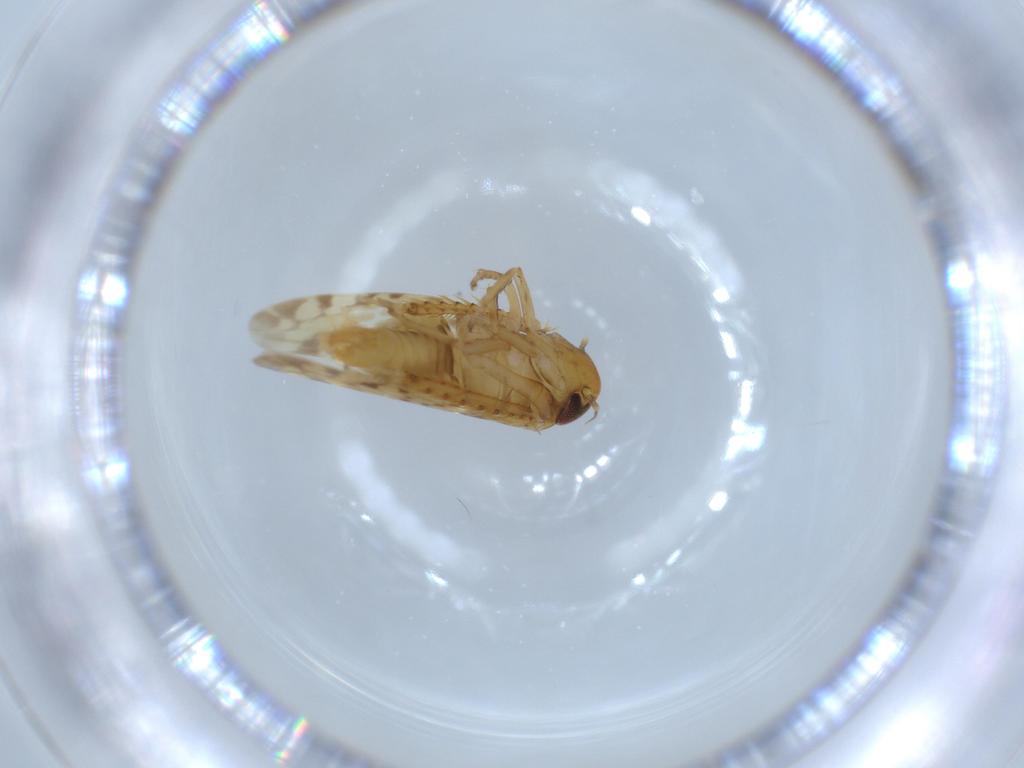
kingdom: Animalia
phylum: Arthropoda
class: Insecta
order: Hemiptera
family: Cicadellidae
